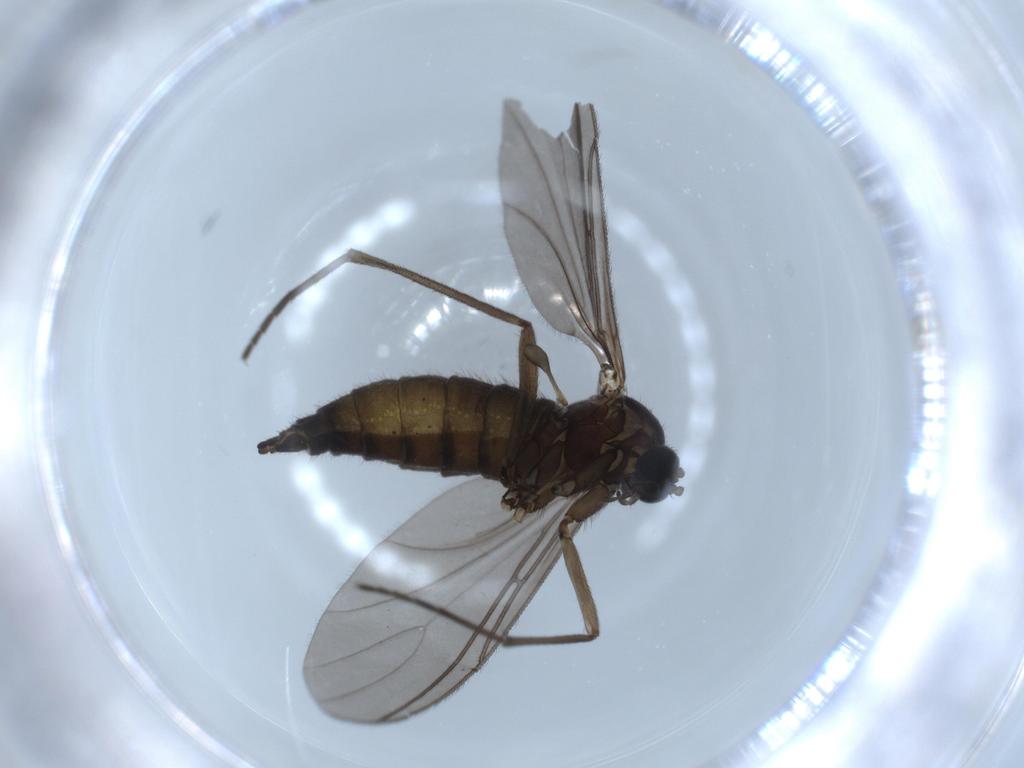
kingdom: Animalia
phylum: Arthropoda
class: Insecta
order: Diptera
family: Sciaridae
